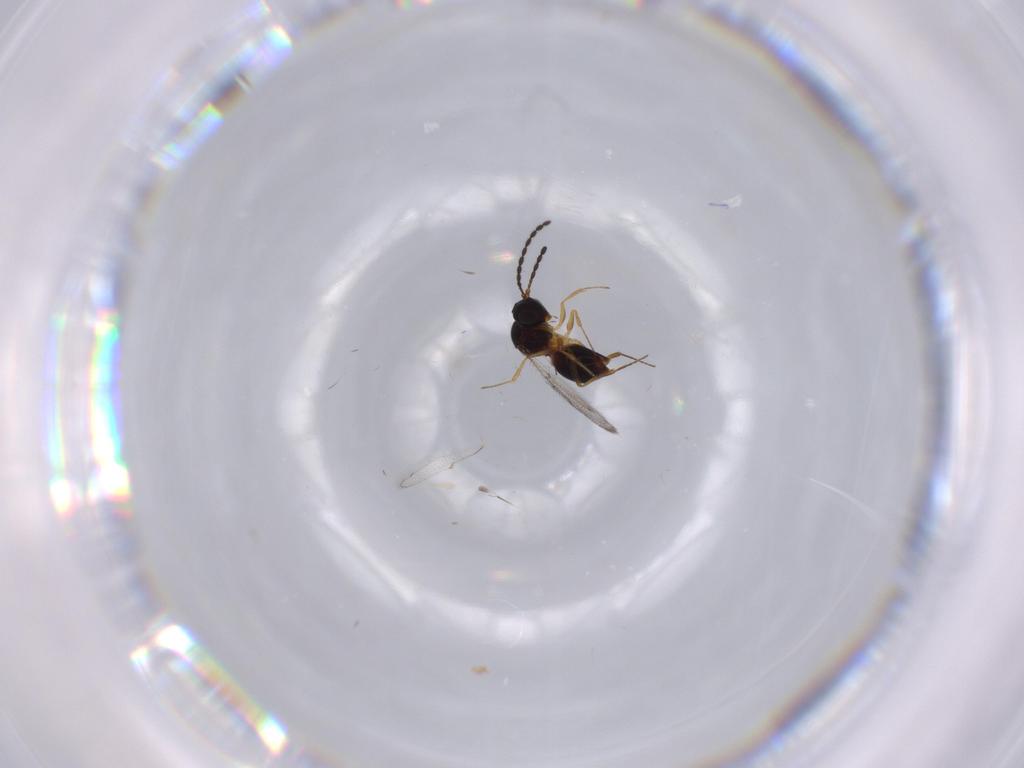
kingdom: Animalia
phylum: Arthropoda
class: Insecta
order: Hymenoptera
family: Figitidae
